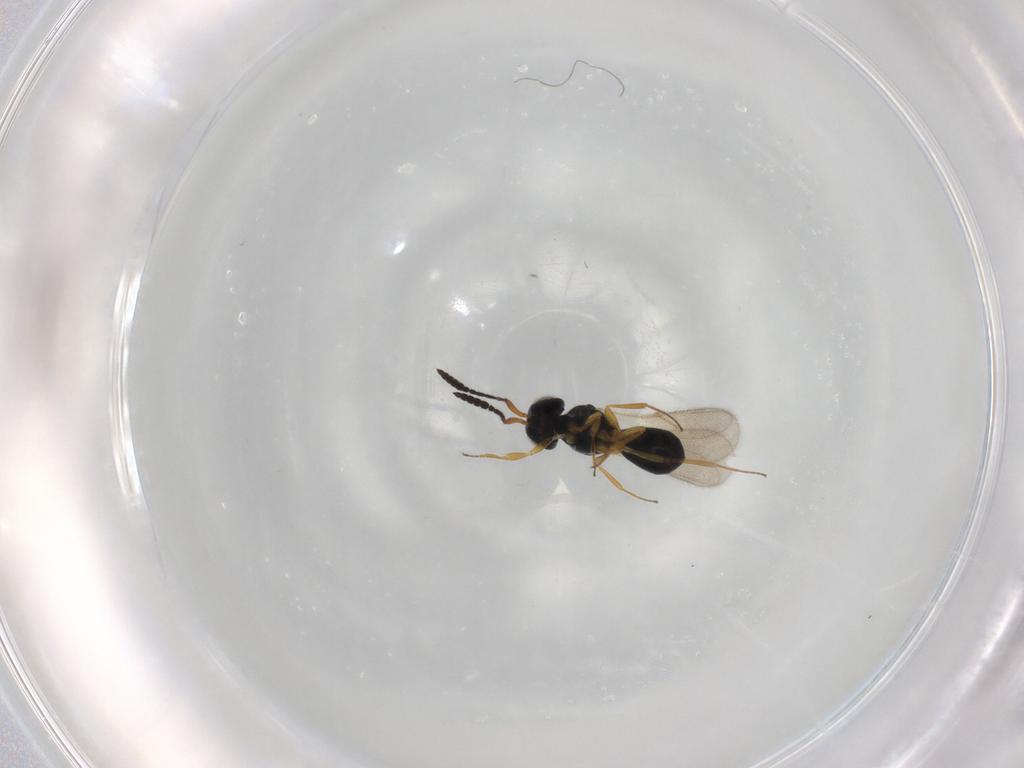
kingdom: Animalia
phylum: Arthropoda
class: Insecta
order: Hymenoptera
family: Scelionidae
